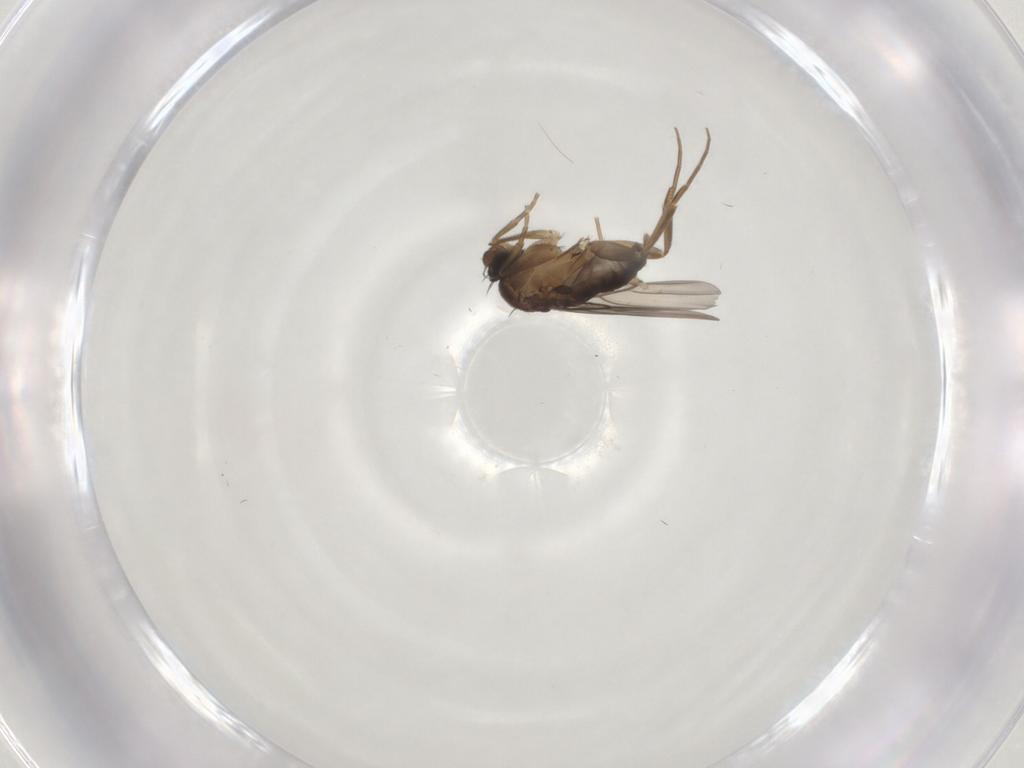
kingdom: Animalia
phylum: Arthropoda
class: Insecta
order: Diptera
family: Phoridae
